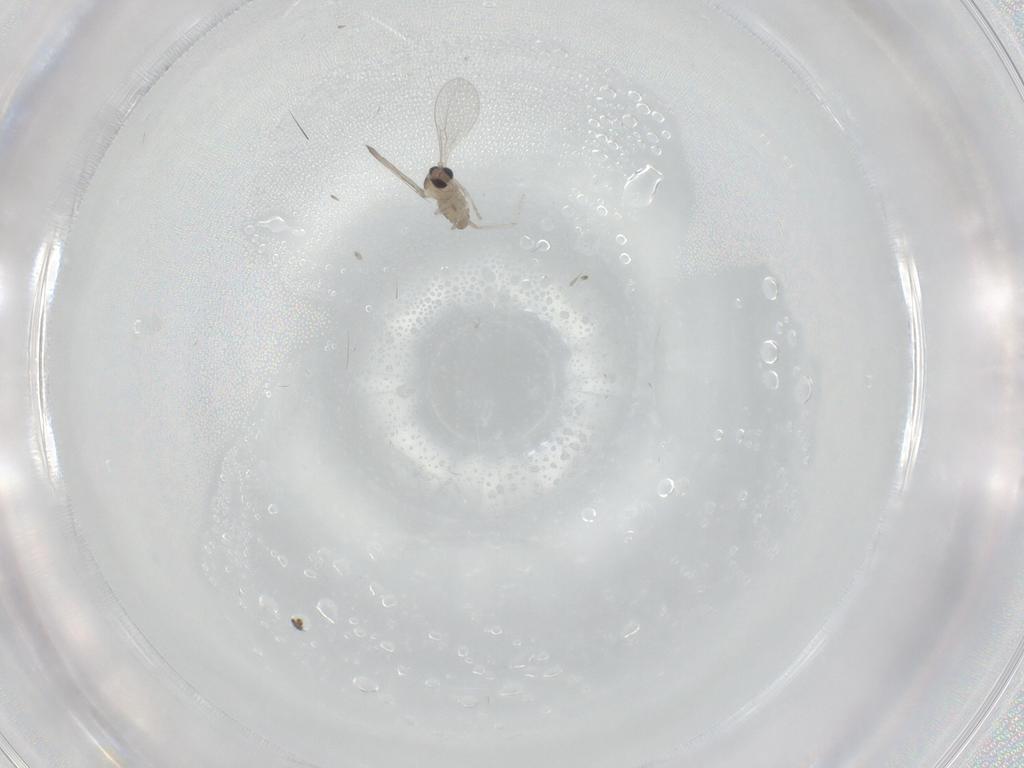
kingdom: Animalia
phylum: Arthropoda
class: Insecta
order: Diptera
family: Cecidomyiidae
